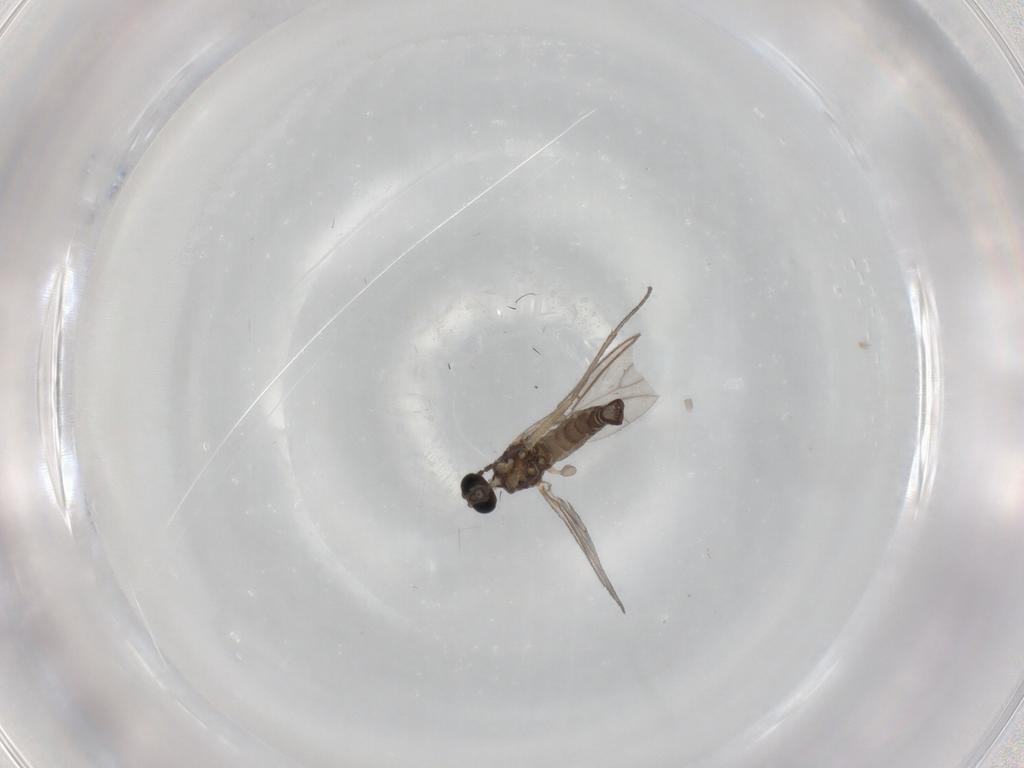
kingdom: Animalia
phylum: Arthropoda
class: Insecta
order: Diptera
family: Sciaridae
